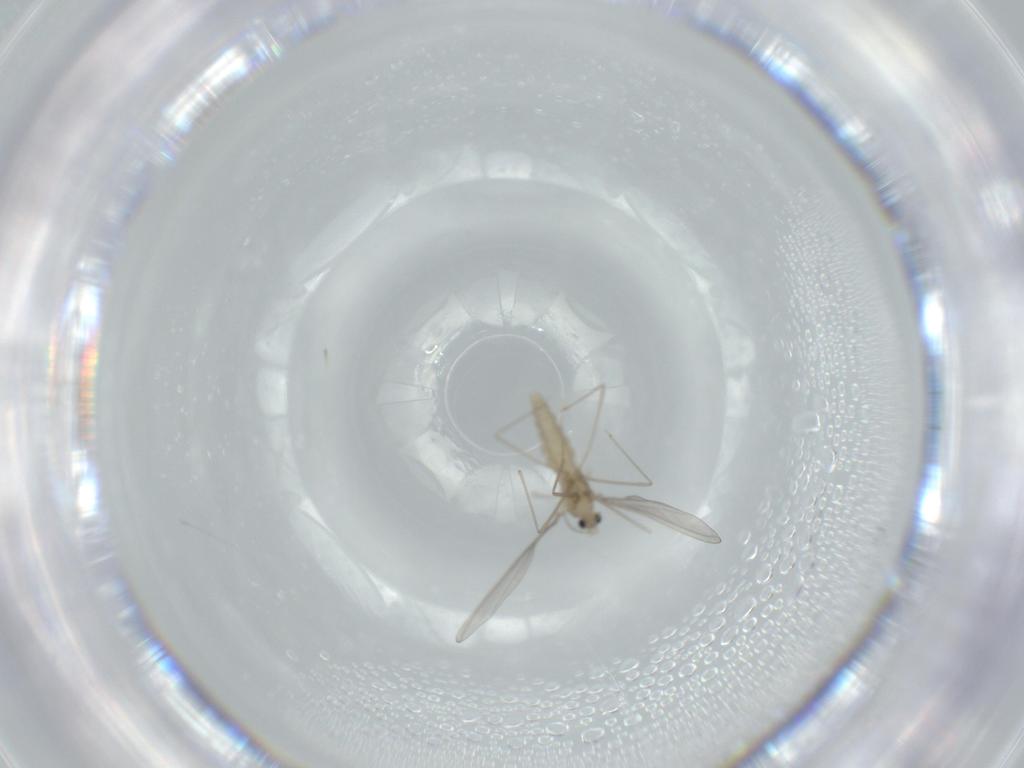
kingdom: Animalia
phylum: Arthropoda
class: Insecta
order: Diptera
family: Cecidomyiidae
